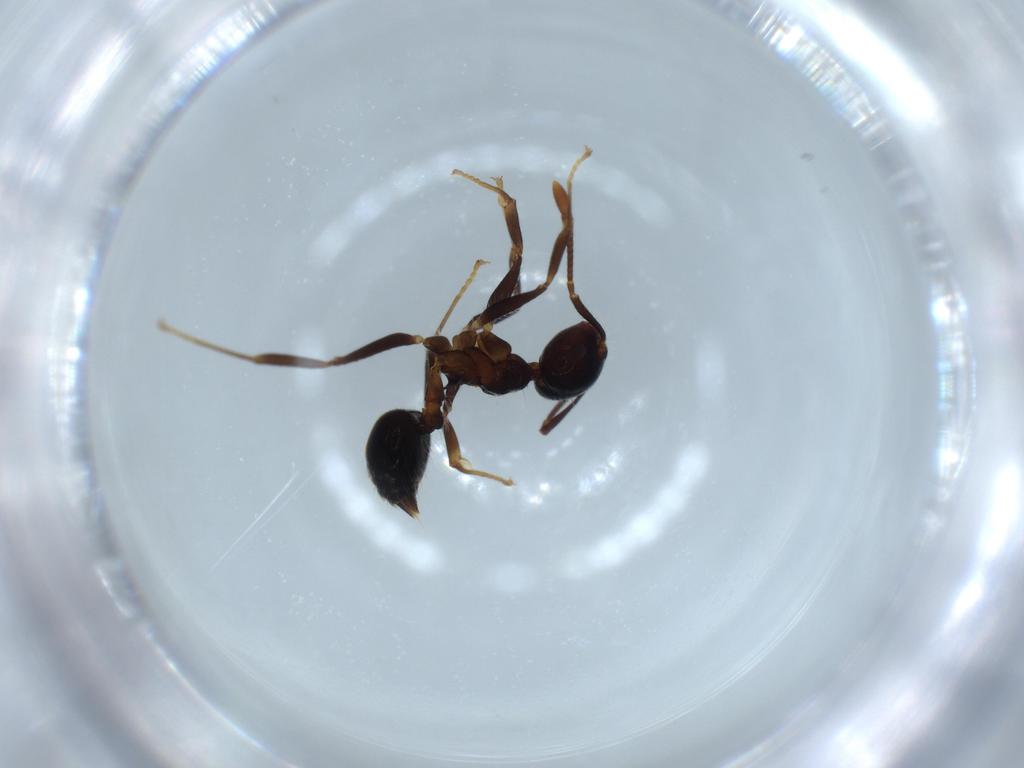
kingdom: Animalia
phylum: Arthropoda
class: Insecta
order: Hymenoptera
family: Formicidae
